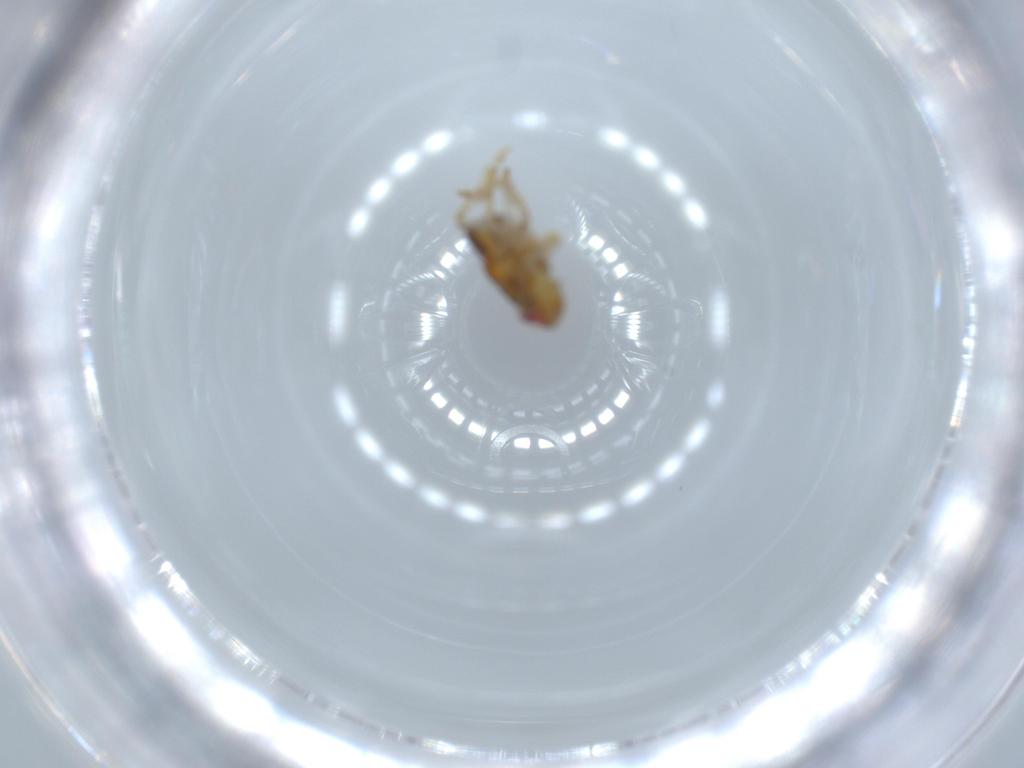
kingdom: Animalia
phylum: Arthropoda
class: Insecta
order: Hemiptera
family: Issidae
